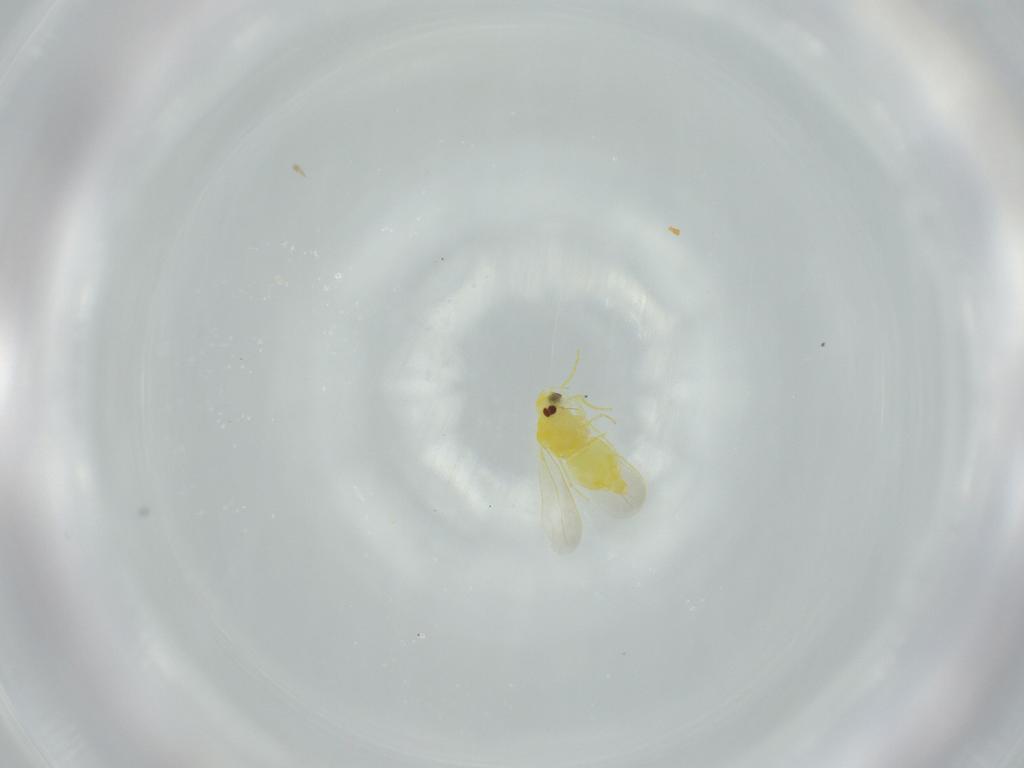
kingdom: Animalia
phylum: Arthropoda
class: Insecta
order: Hemiptera
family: Aleyrodidae
